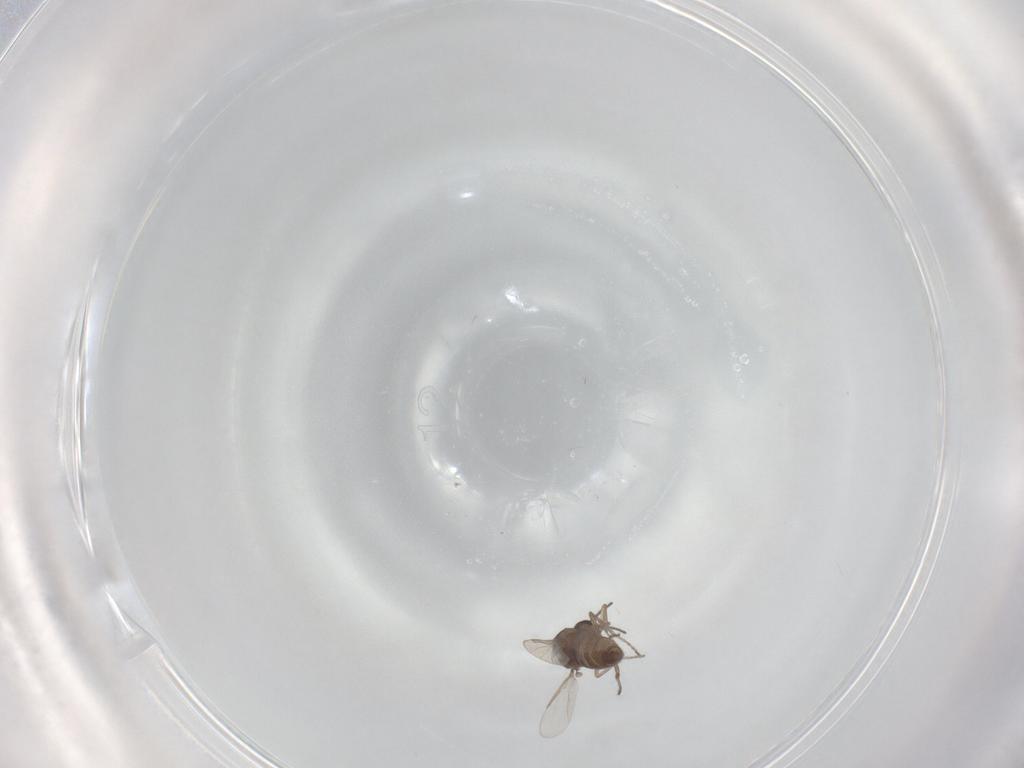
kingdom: Animalia
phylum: Arthropoda
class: Insecta
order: Diptera
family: Ceratopogonidae
